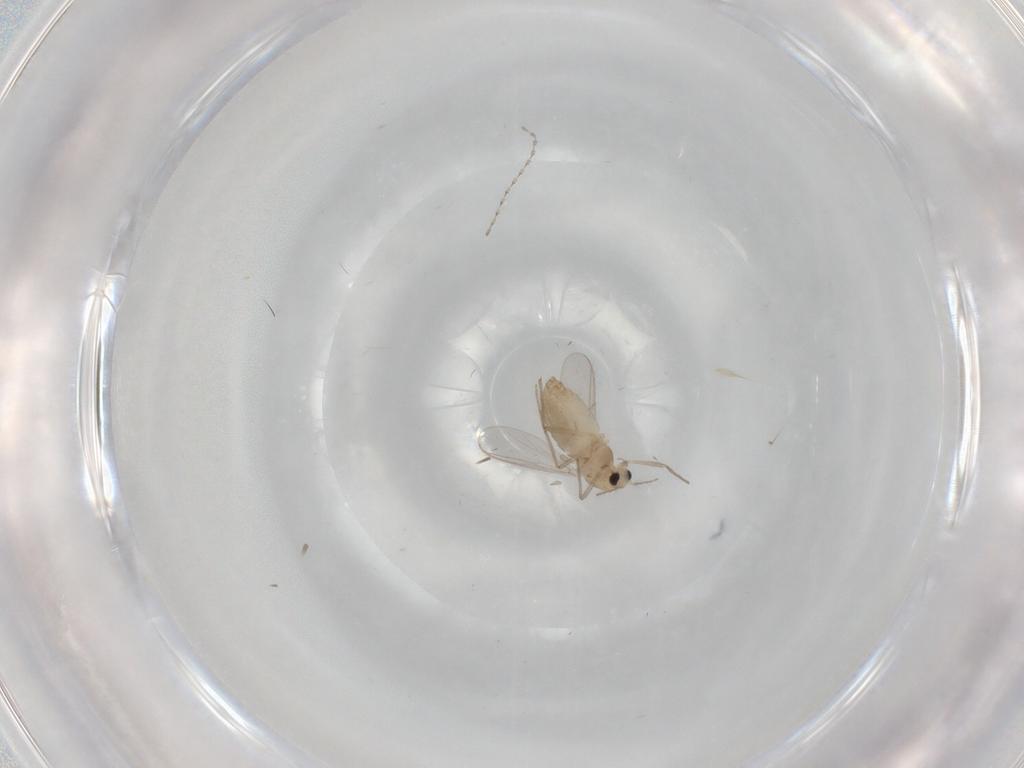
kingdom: Animalia
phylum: Arthropoda
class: Insecta
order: Diptera
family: Chironomidae
